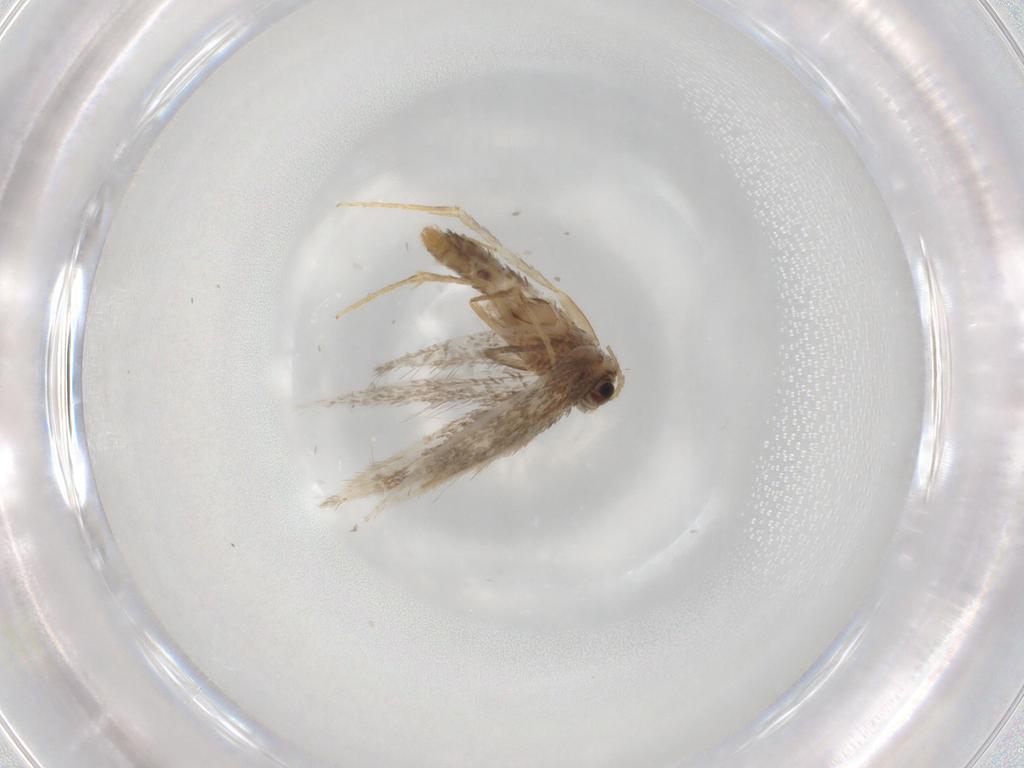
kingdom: Animalia
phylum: Arthropoda
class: Insecta
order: Lepidoptera
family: Nepticulidae
